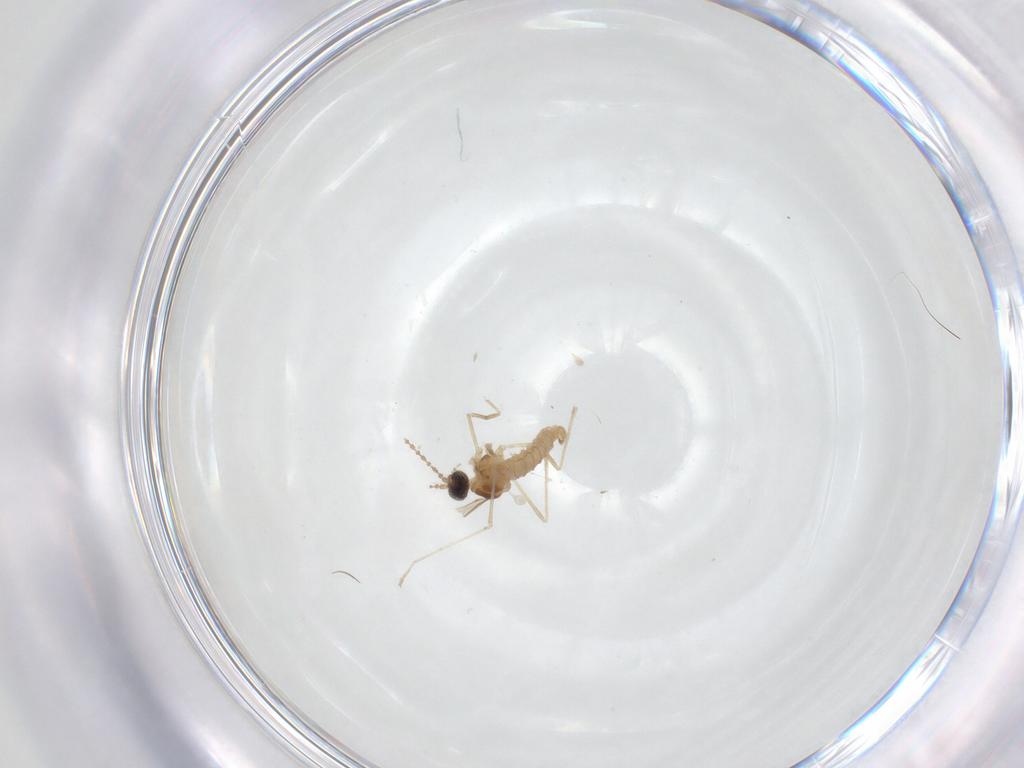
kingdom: Animalia
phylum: Arthropoda
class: Insecta
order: Diptera
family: Cecidomyiidae
